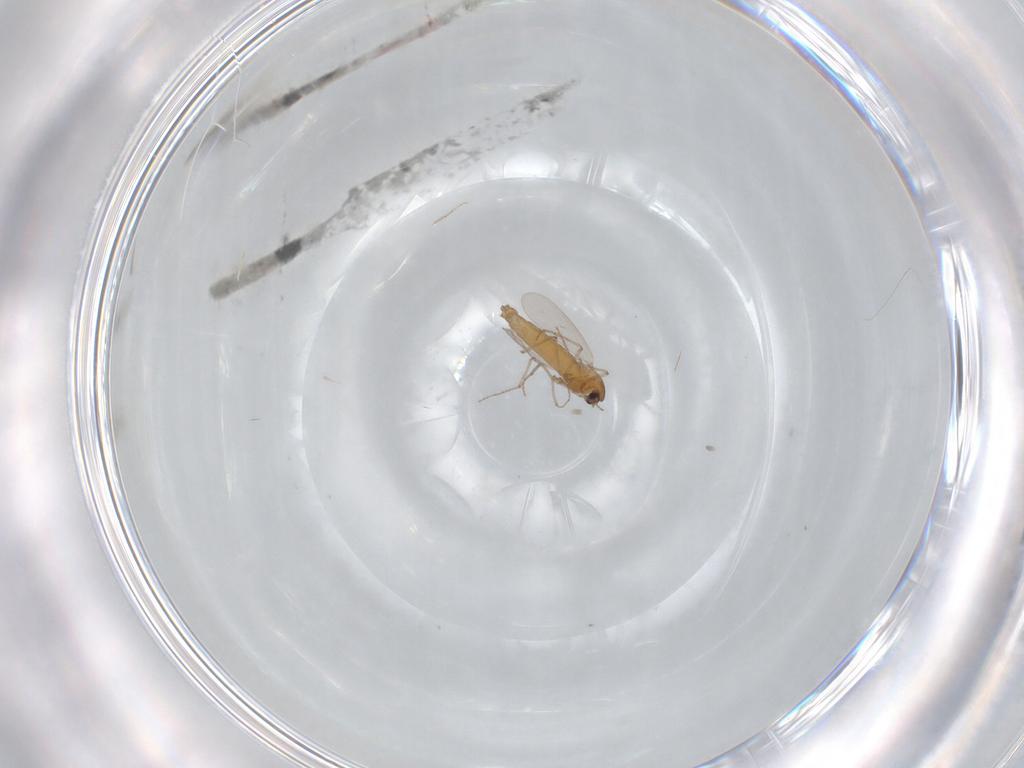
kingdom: Animalia
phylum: Arthropoda
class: Insecta
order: Diptera
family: Chironomidae
